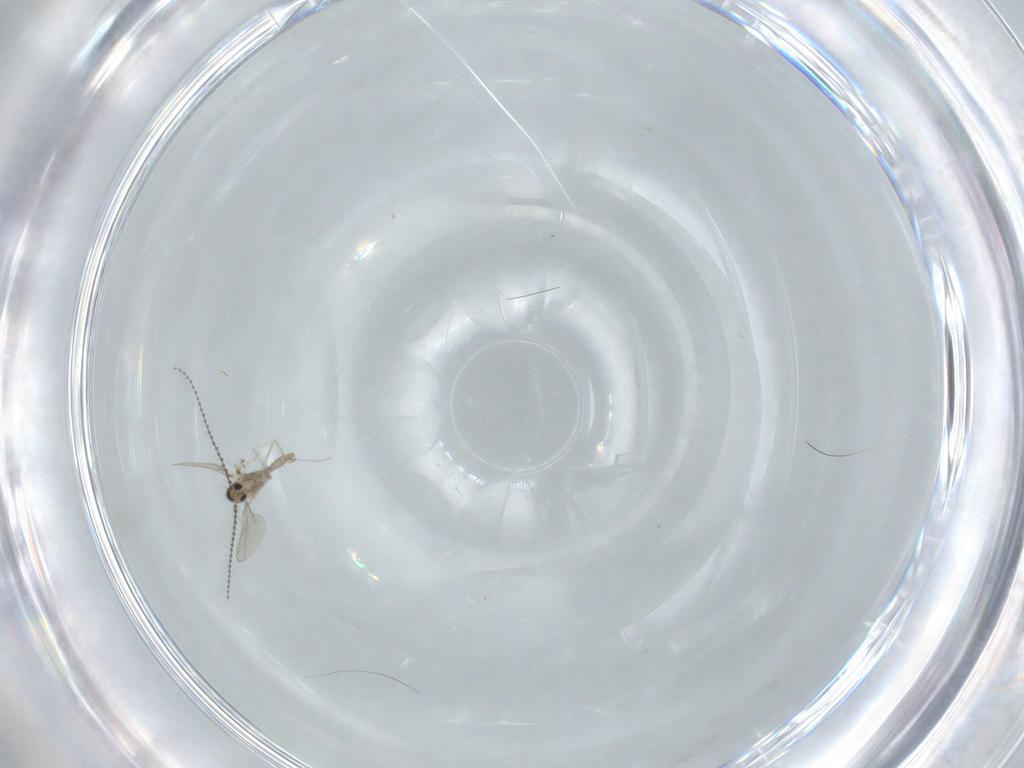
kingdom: Animalia
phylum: Arthropoda
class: Insecta
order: Diptera
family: Cecidomyiidae
